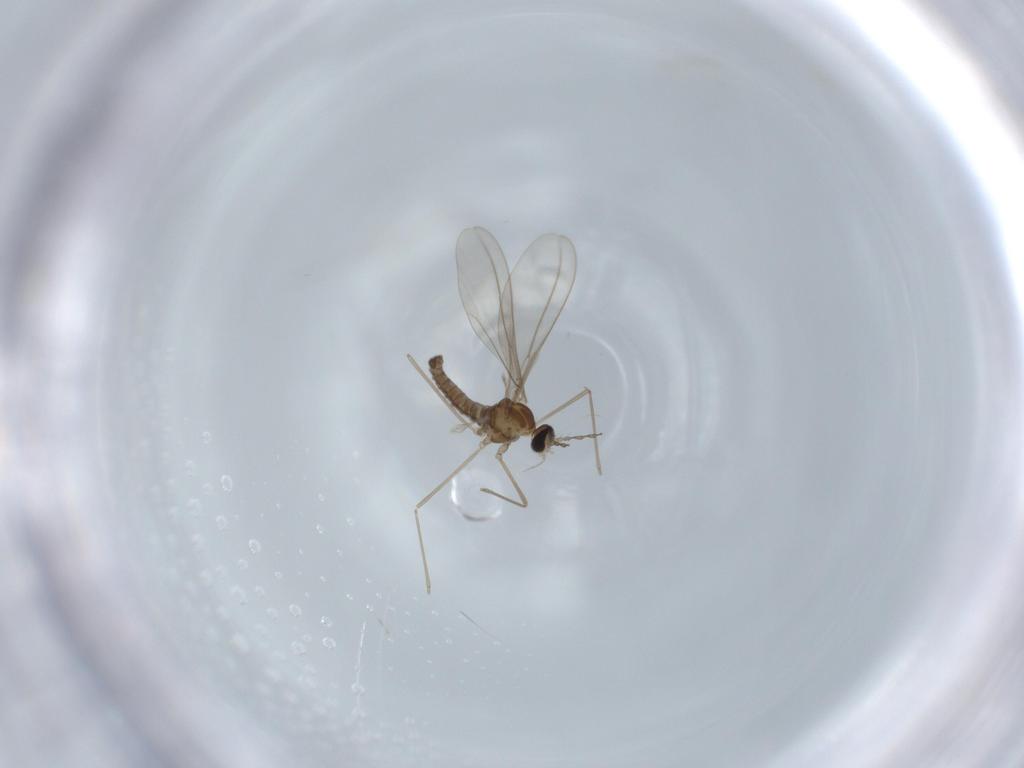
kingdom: Animalia
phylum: Arthropoda
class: Insecta
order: Diptera
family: Cecidomyiidae
